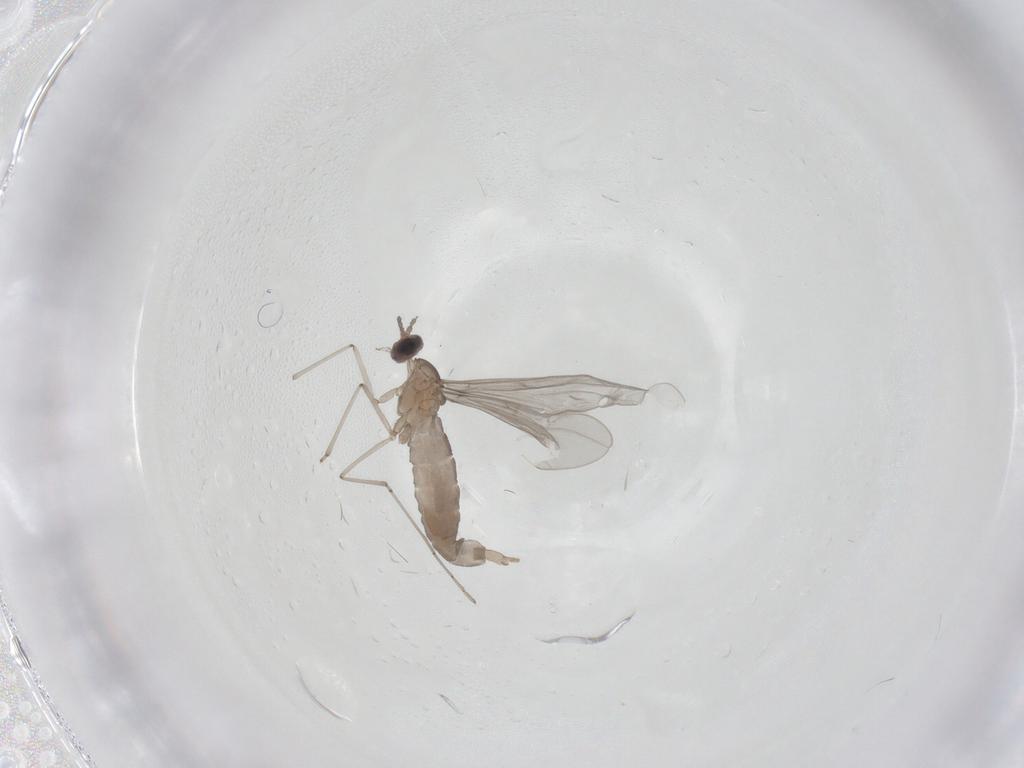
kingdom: Animalia
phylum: Arthropoda
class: Insecta
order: Diptera
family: Cecidomyiidae
